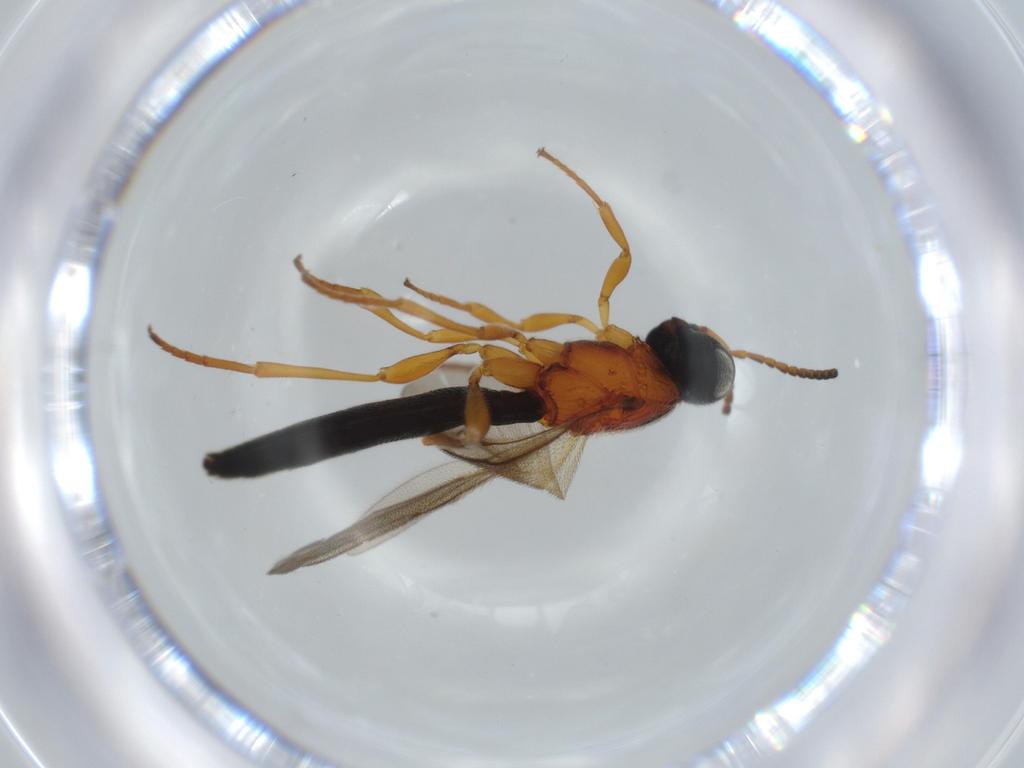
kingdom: Animalia
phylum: Arthropoda
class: Insecta
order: Hymenoptera
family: Scelionidae
